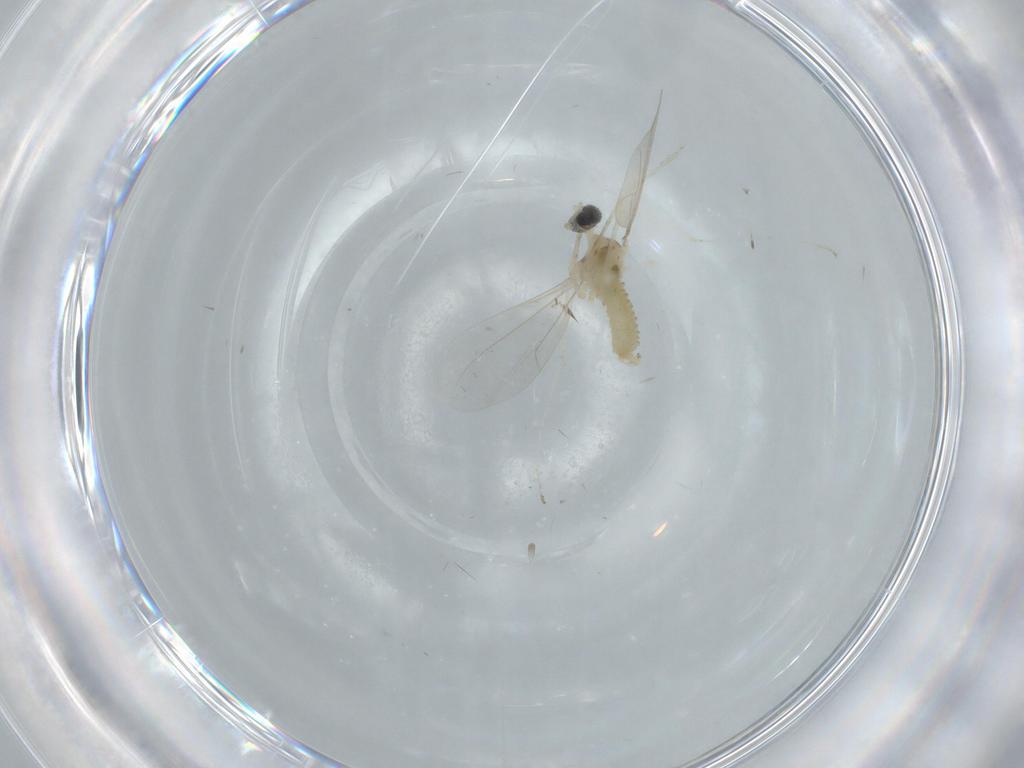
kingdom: Animalia
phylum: Arthropoda
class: Insecta
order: Diptera
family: Cecidomyiidae
